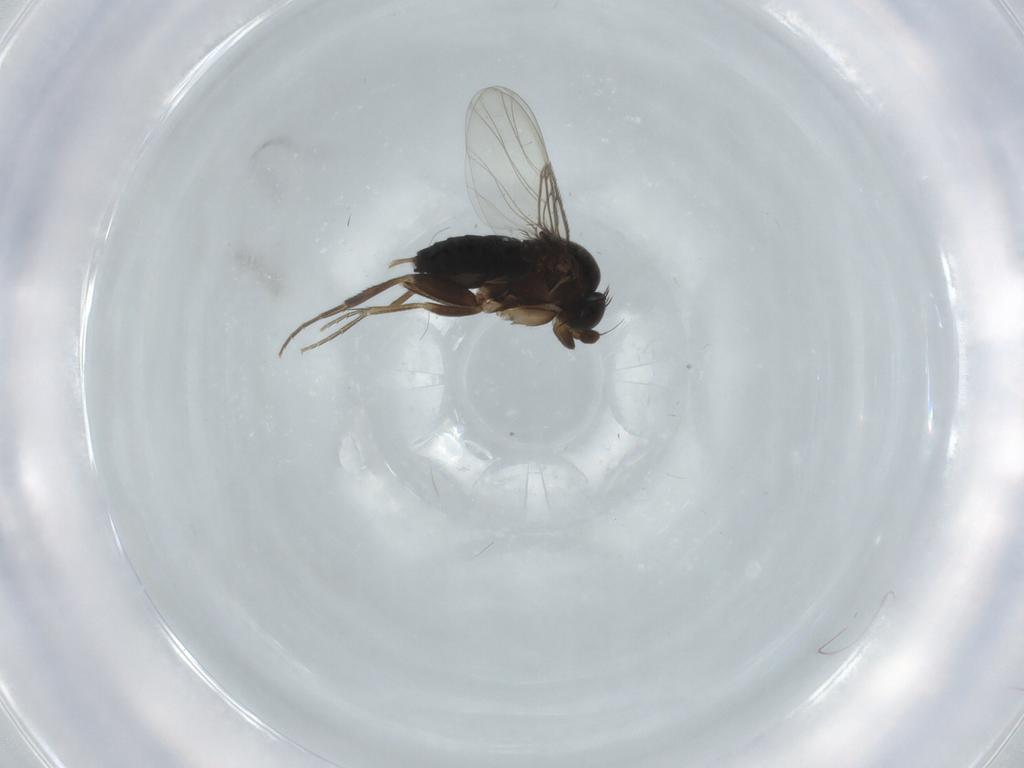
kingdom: Animalia
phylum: Arthropoda
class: Insecta
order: Diptera
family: Phoridae
